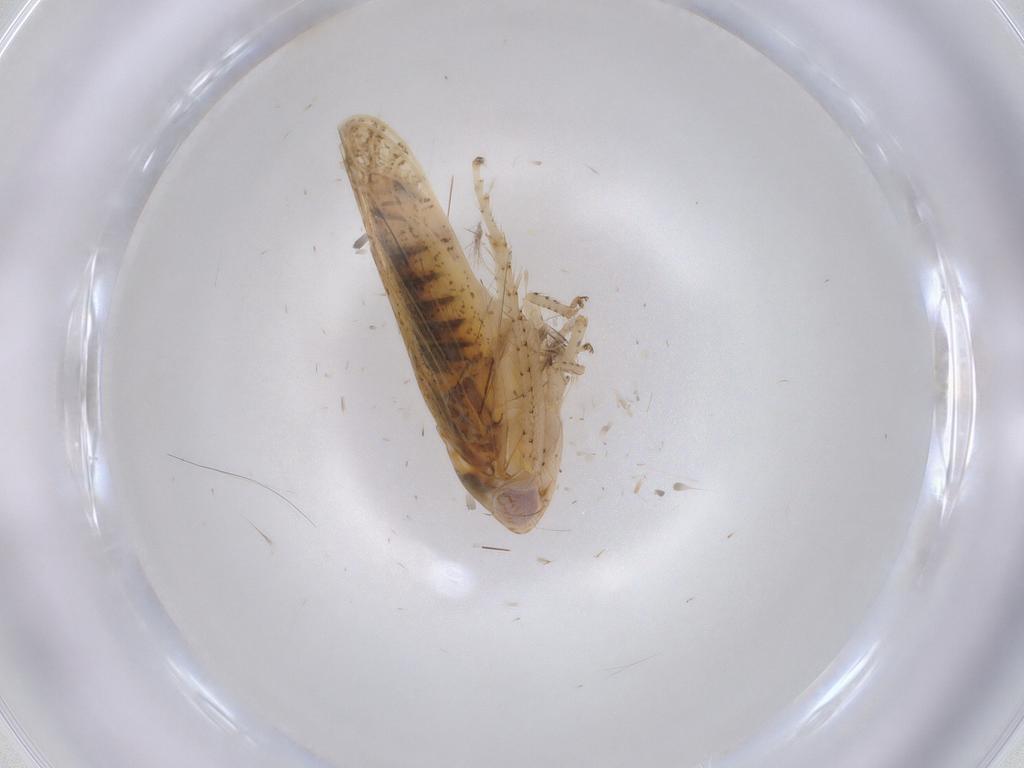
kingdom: Animalia
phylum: Arthropoda
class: Insecta
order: Hemiptera
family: Cicadellidae
